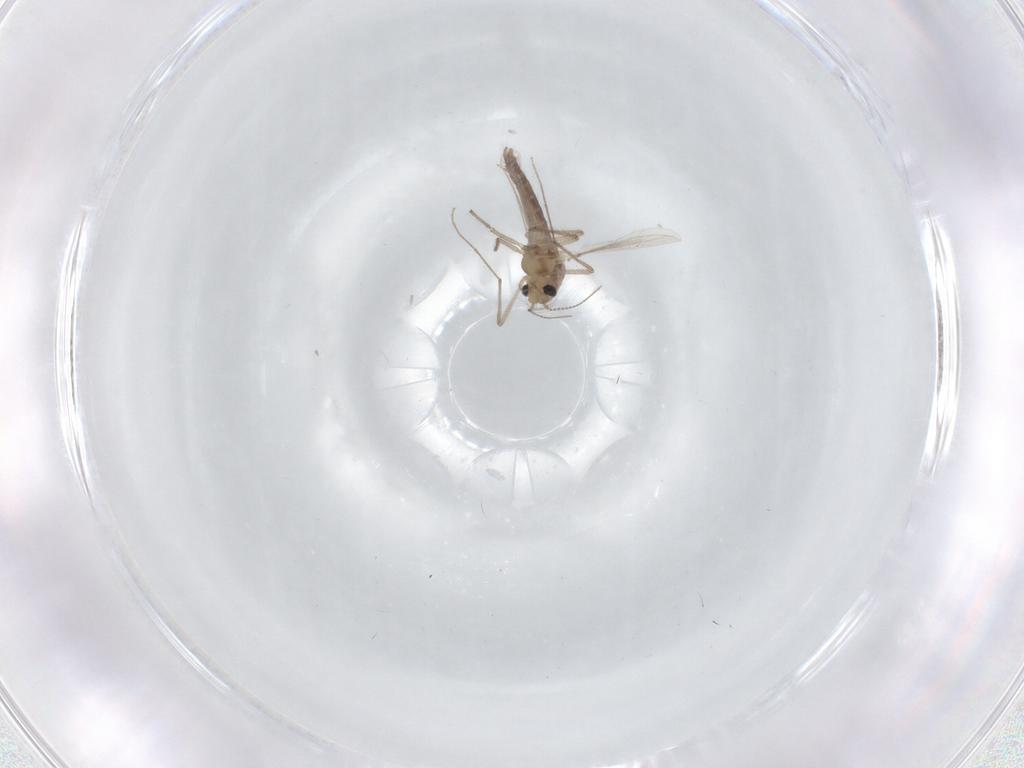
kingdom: Animalia
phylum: Arthropoda
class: Insecta
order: Diptera
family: Chironomidae
